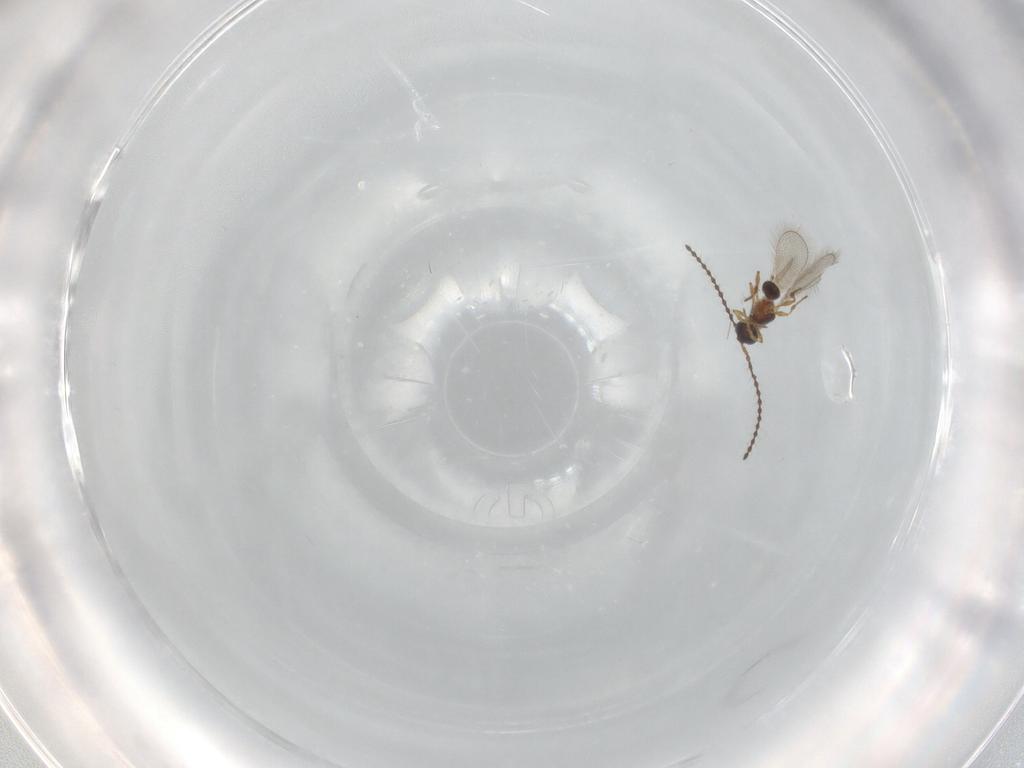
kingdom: Animalia
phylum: Arthropoda
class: Insecta
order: Hymenoptera
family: Diapriidae
